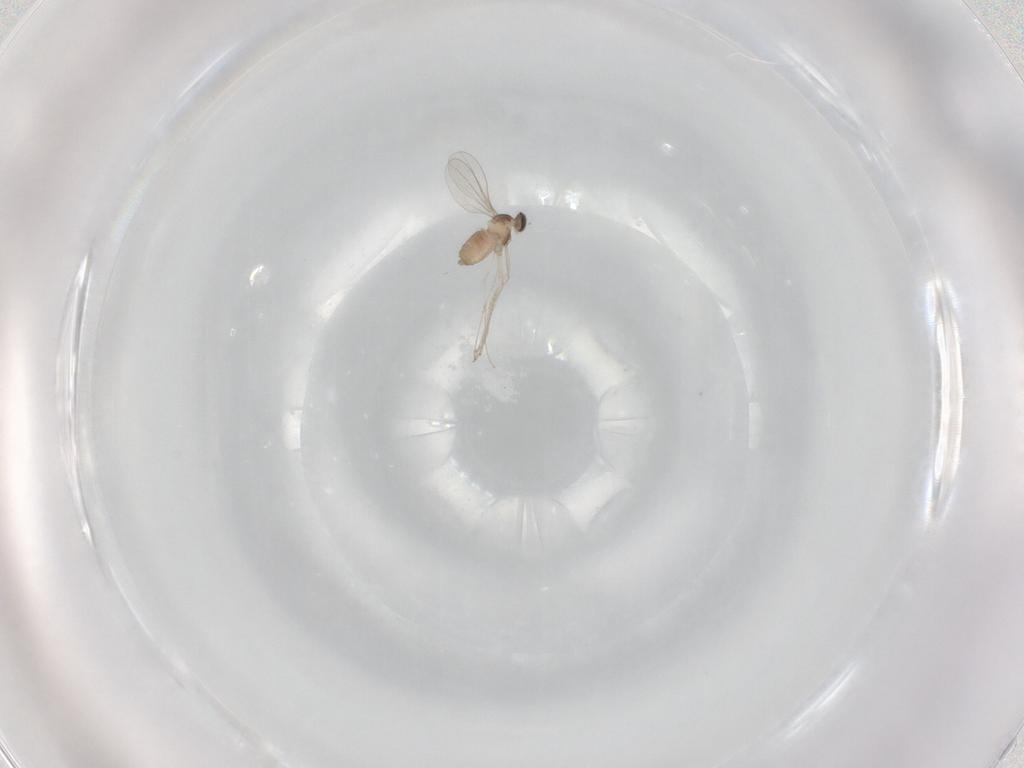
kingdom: Animalia
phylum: Arthropoda
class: Insecta
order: Diptera
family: Cecidomyiidae
